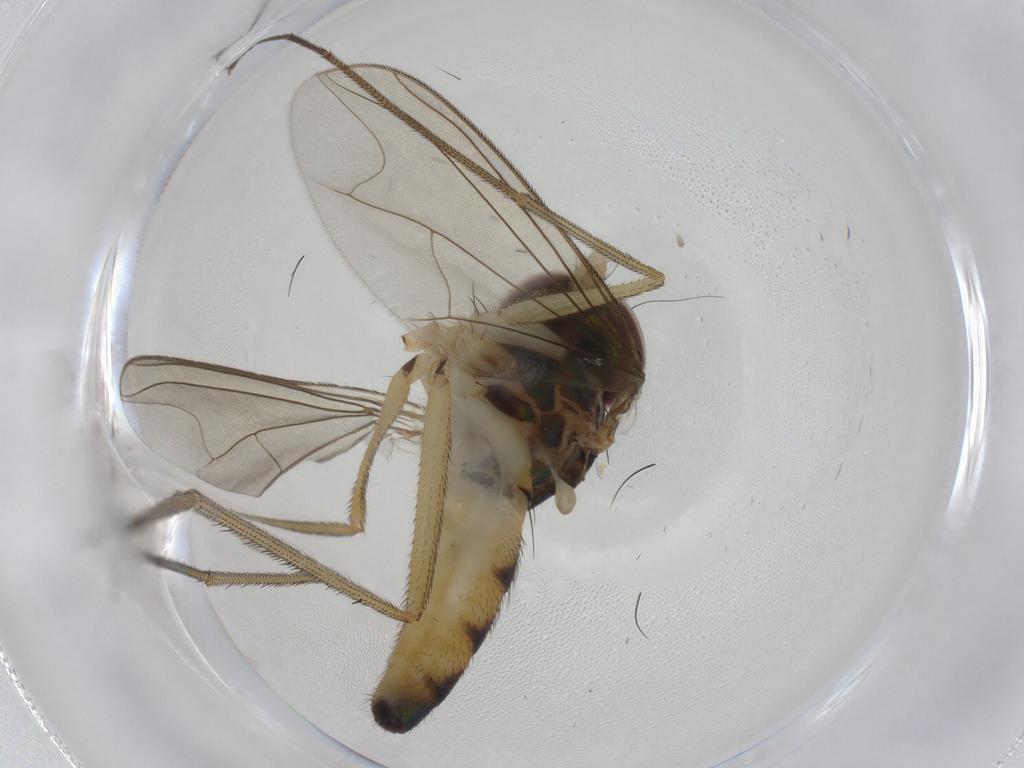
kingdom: Animalia
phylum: Arthropoda
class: Insecta
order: Diptera
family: Dolichopodidae
